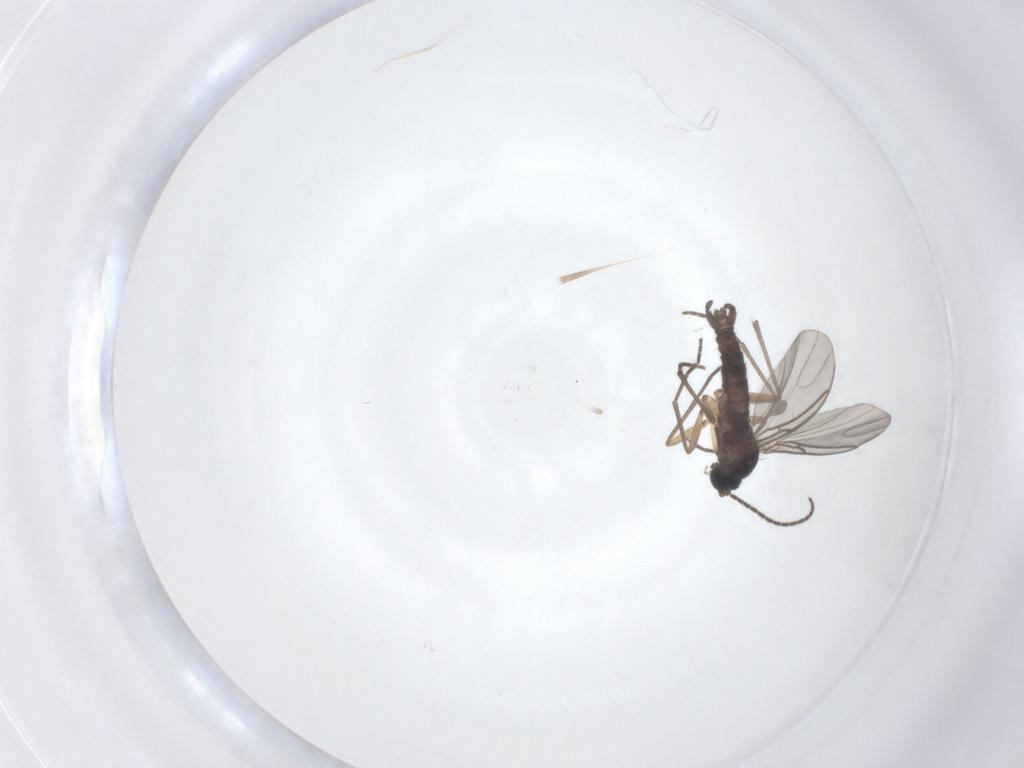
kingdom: Animalia
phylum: Arthropoda
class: Insecta
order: Diptera
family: Sciaridae
